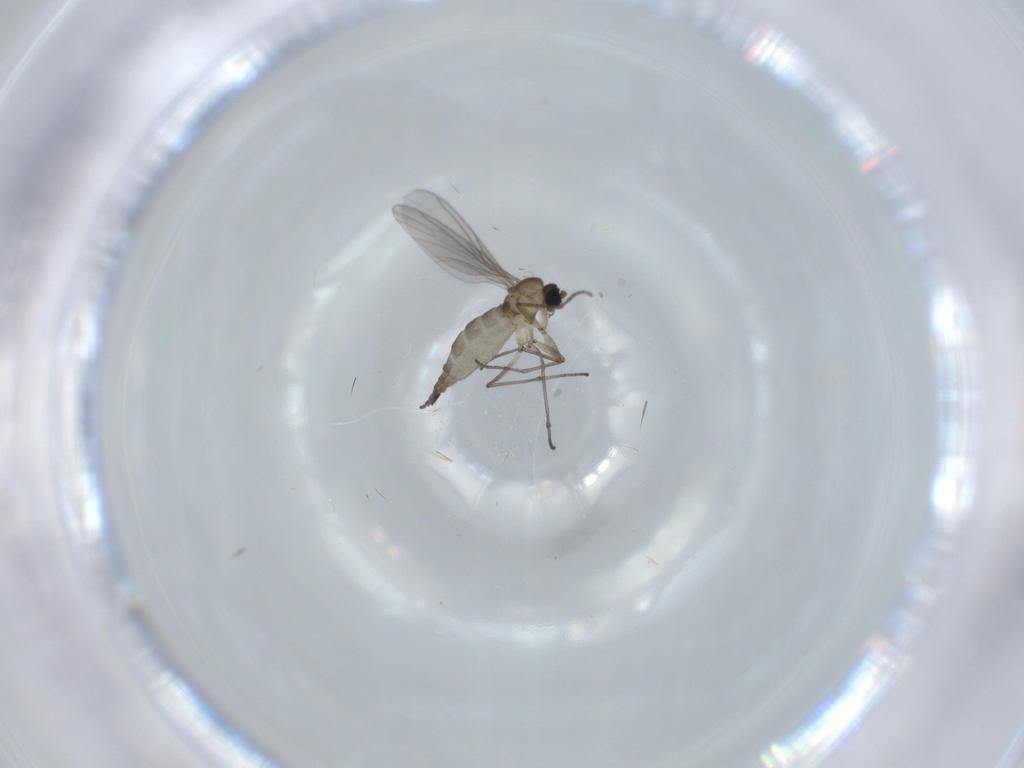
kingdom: Animalia
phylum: Arthropoda
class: Insecta
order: Diptera
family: Sciaridae
